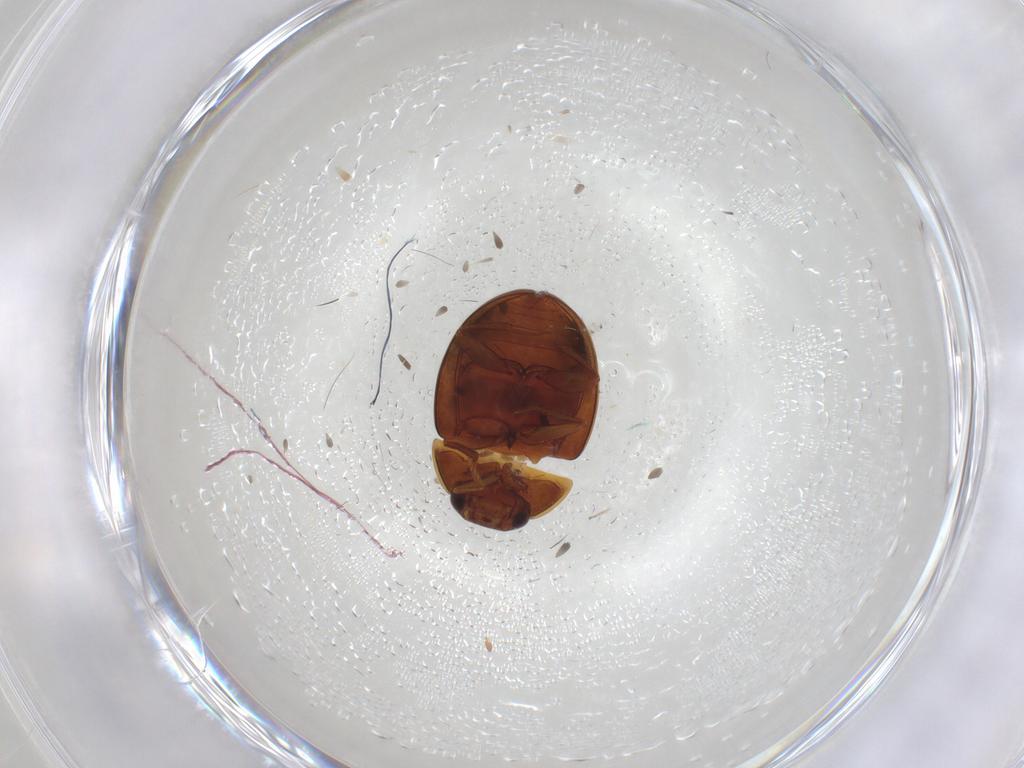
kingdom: Animalia
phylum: Arthropoda
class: Insecta
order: Coleoptera
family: Leiodidae
